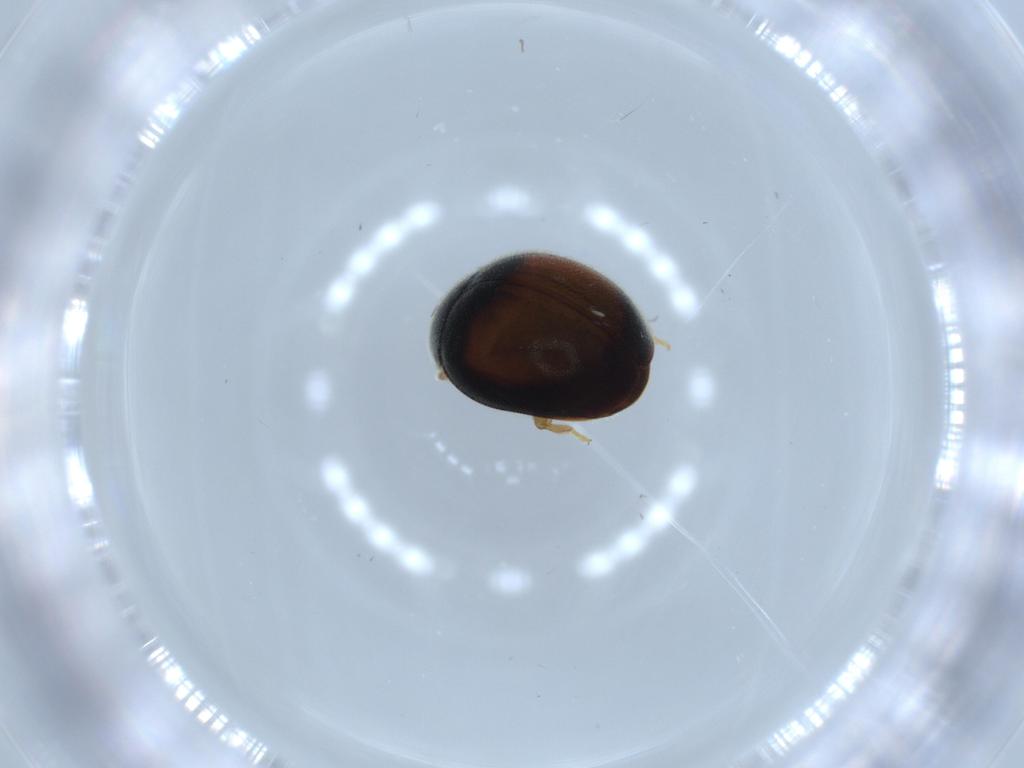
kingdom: Animalia
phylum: Arthropoda
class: Insecta
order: Coleoptera
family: Coccinellidae
